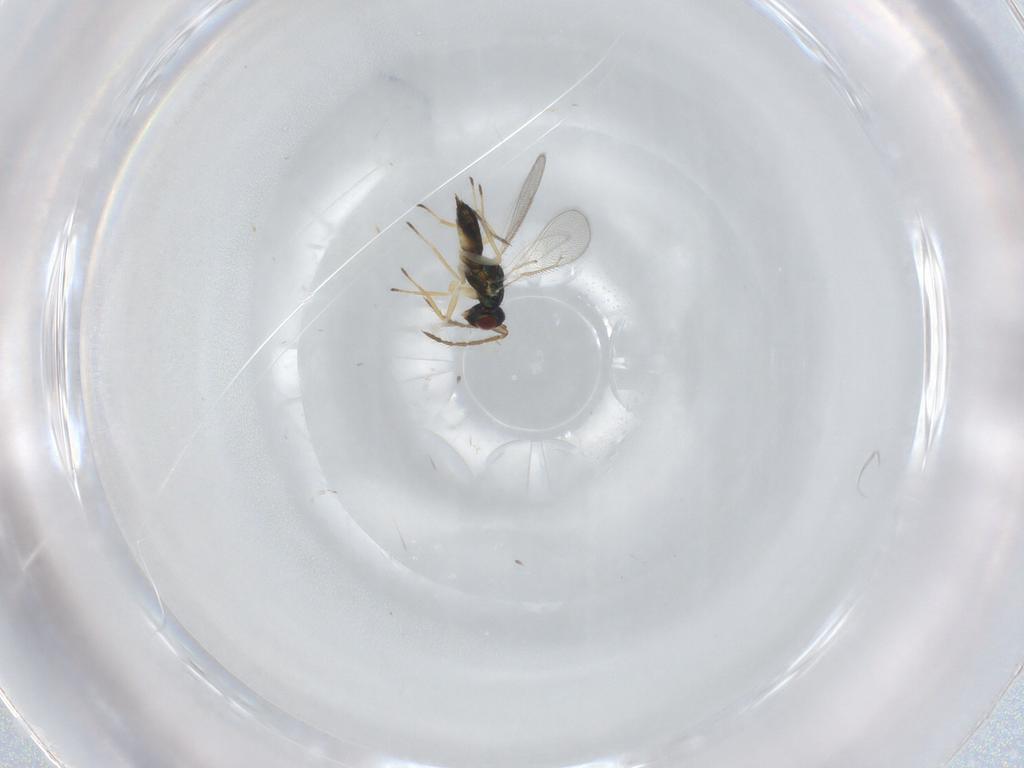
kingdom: Animalia
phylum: Arthropoda
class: Insecta
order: Hymenoptera
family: Eulophidae
